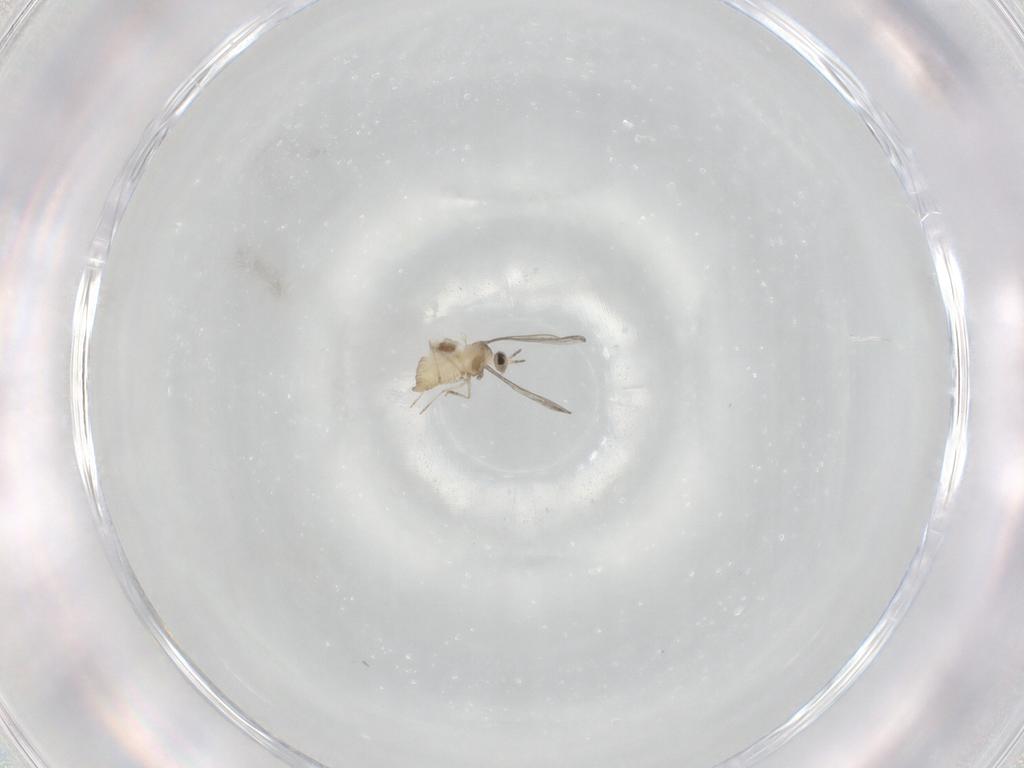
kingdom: Animalia
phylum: Arthropoda
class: Insecta
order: Diptera
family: Cecidomyiidae
